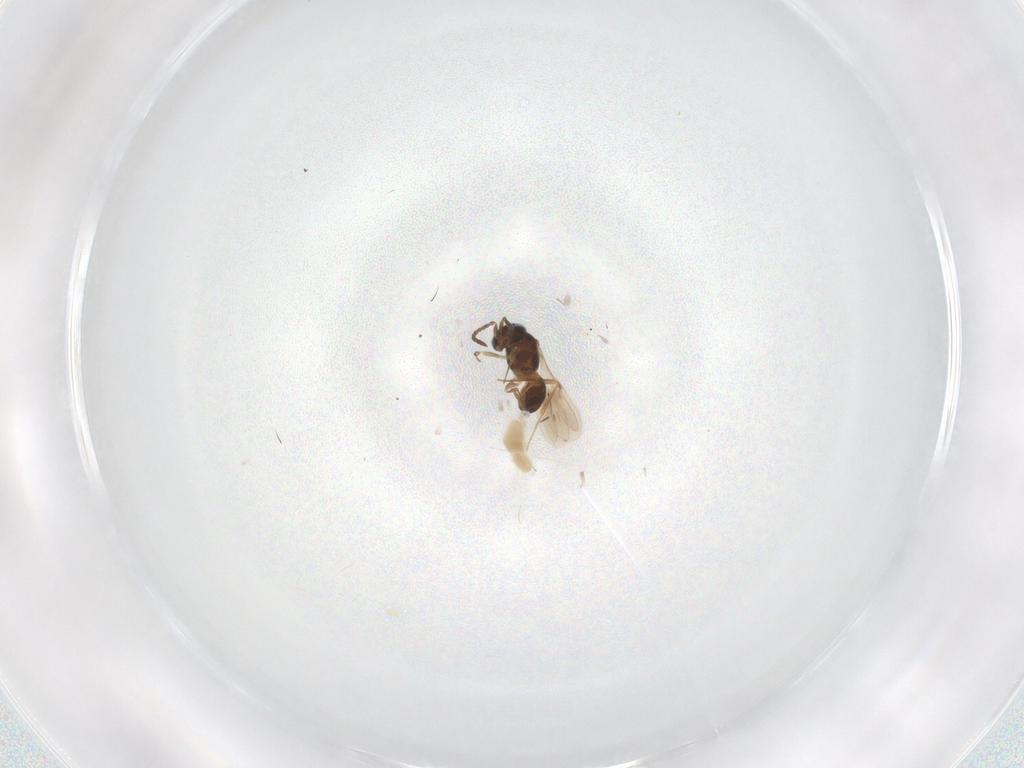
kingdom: Animalia
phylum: Arthropoda
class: Insecta
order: Hymenoptera
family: Scelionidae
